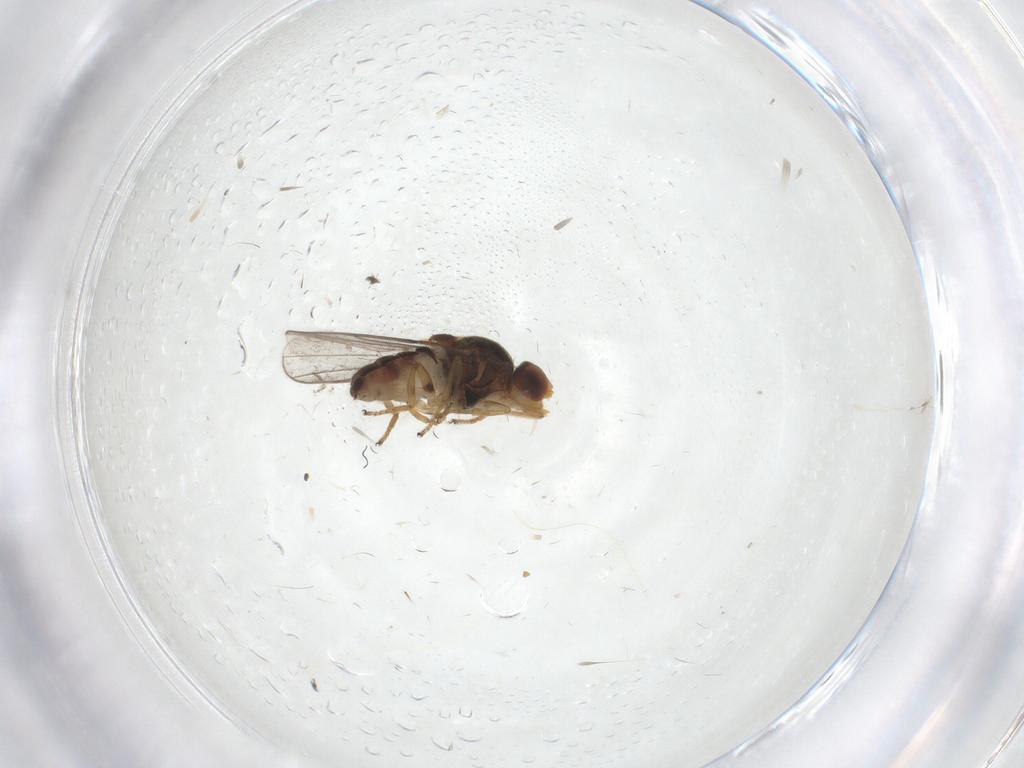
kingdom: Animalia
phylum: Arthropoda
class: Insecta
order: Diptera
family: Chloropidae
